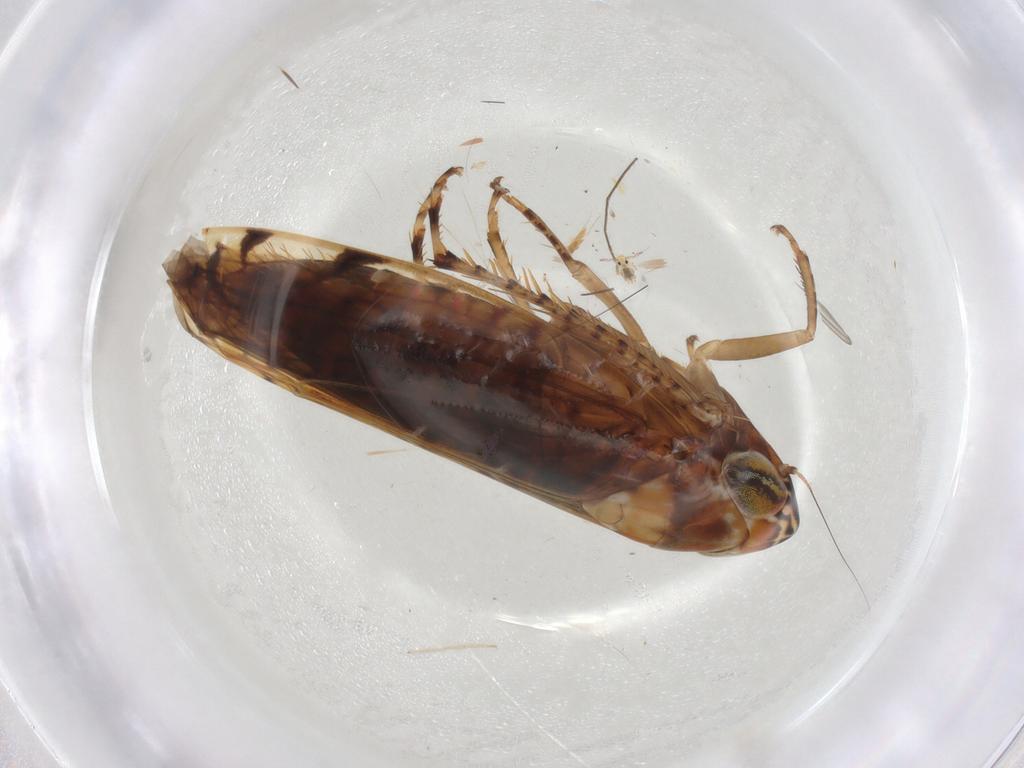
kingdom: Animalia
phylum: Arthropoda
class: Insecta
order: Hemiptera
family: Cicadellidae
